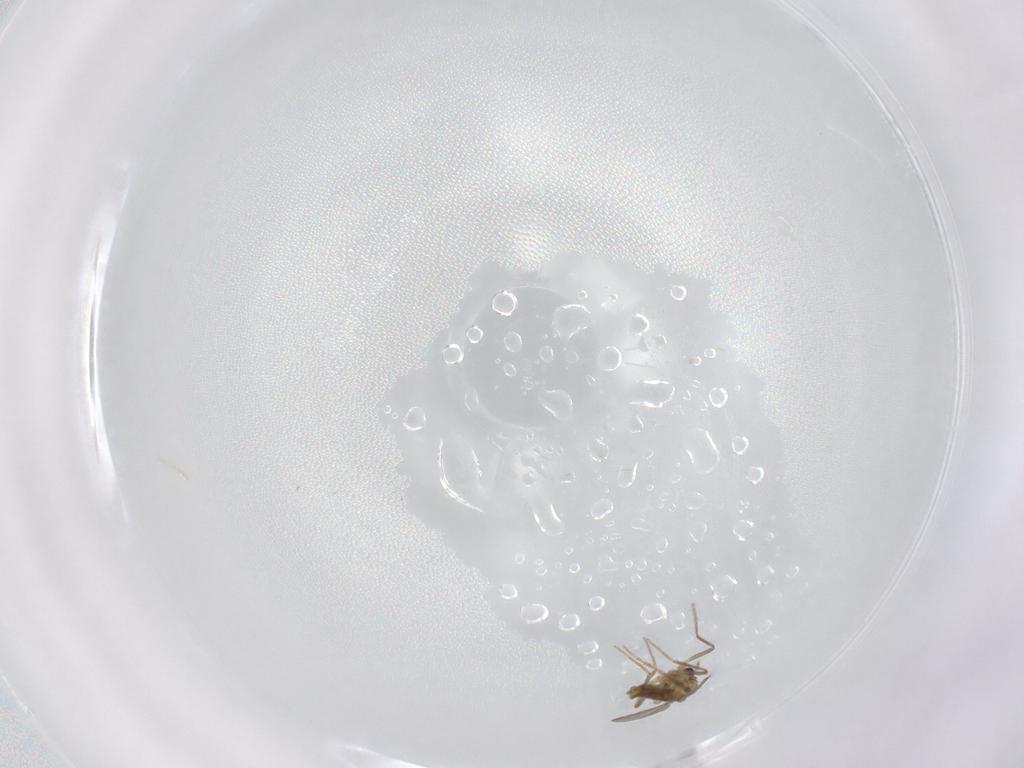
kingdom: Animalia
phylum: Arthropoda
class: Insecta
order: Diptera
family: Chironomidae
